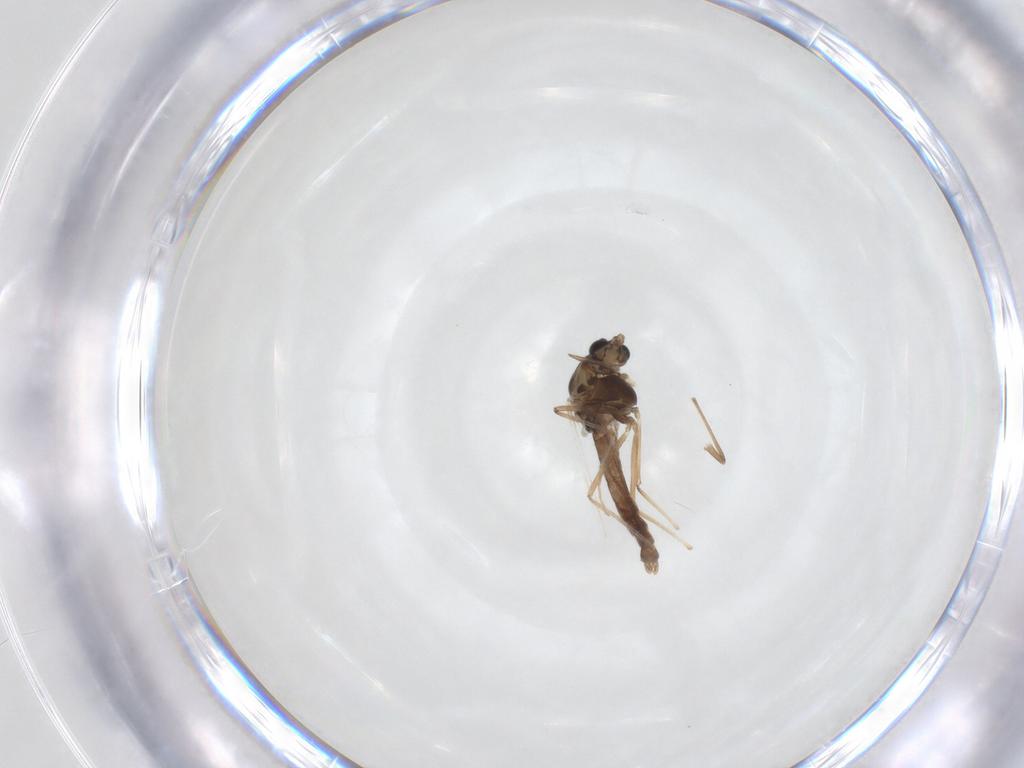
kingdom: Animalia
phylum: Arthropoda
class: Insecta
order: Diptera
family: Chironomidae
